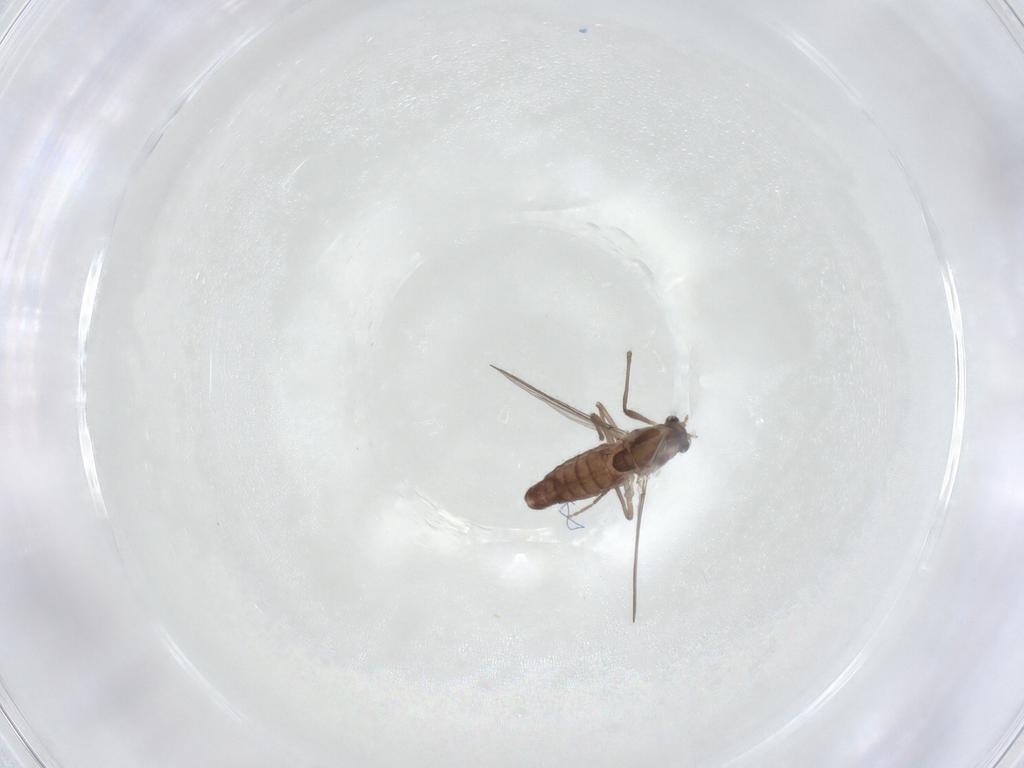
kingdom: Animalia
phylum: Arthropoda
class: Insecta
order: Diptera
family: Chironomidae
